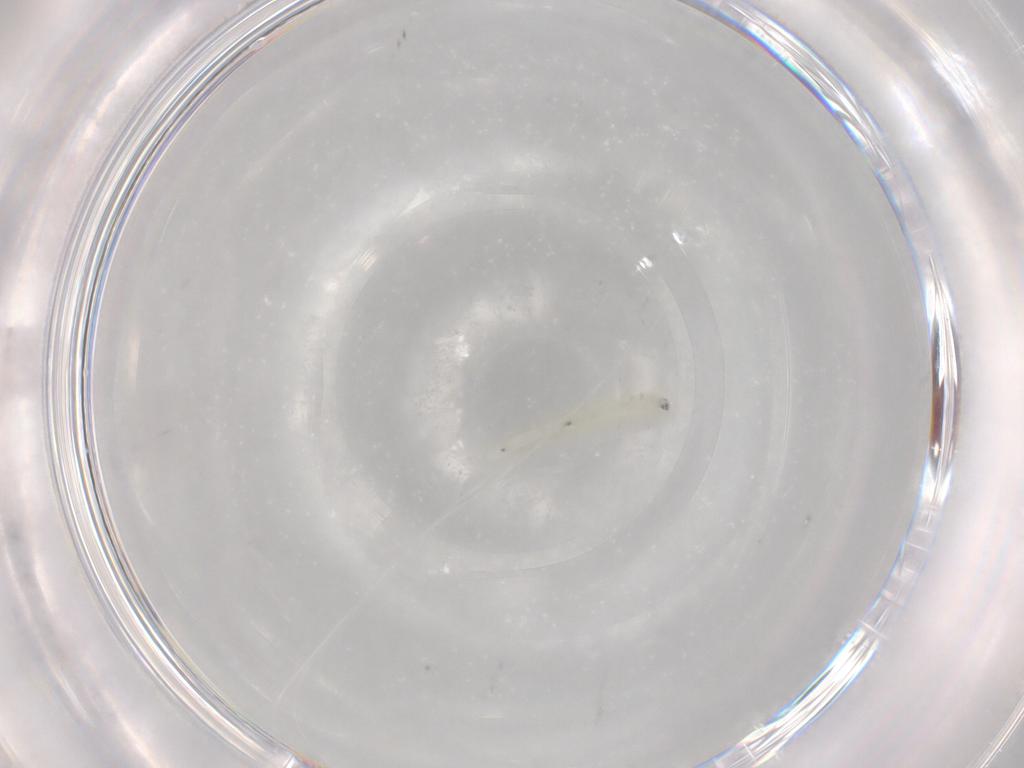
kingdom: Animalia
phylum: Arthropoda
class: Insecta
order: Diptera
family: Chironomidae
